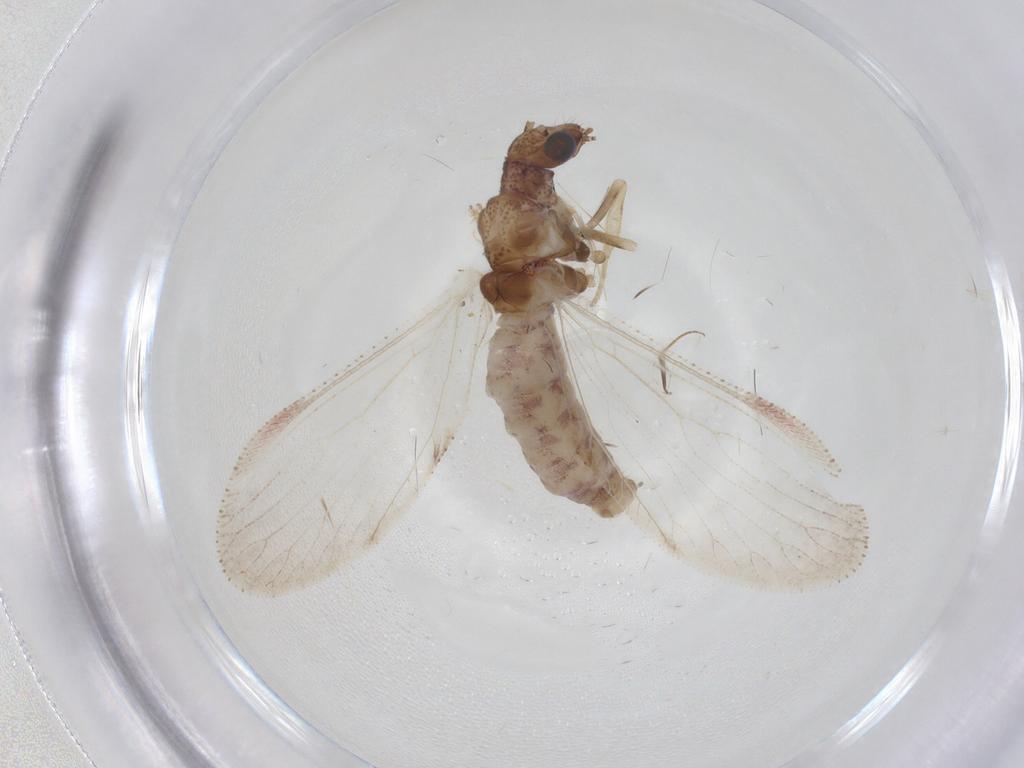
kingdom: Animalia
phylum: Arthropoda
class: Insecta
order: Neuroptera
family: Hemerobiidae
